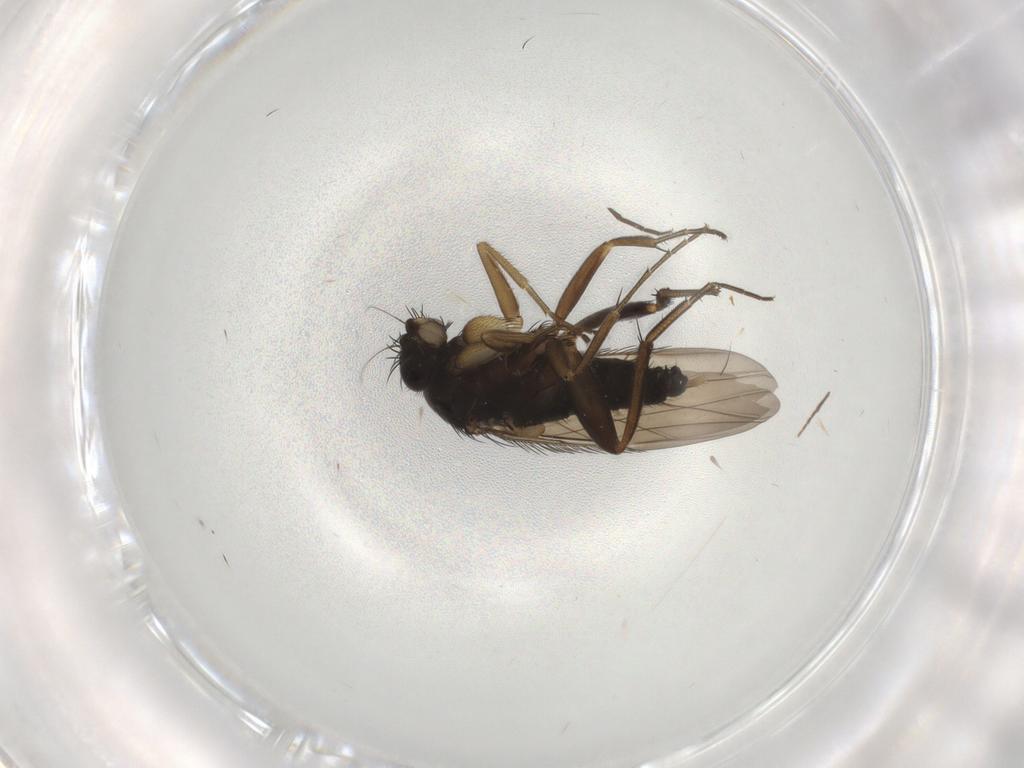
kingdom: Animalia
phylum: Arthropoda
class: Insecta
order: Diptera
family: Phoridae
